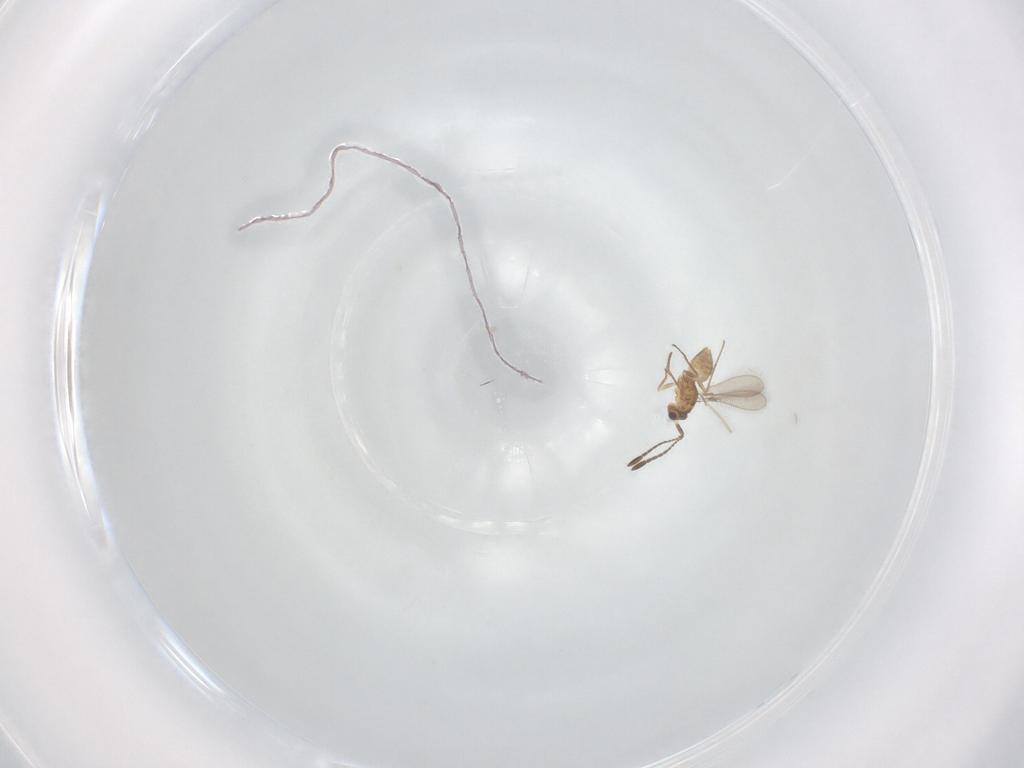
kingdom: Animalia
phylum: Arthropoda
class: Insecta
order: Hymenoptera
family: Mymaridae
